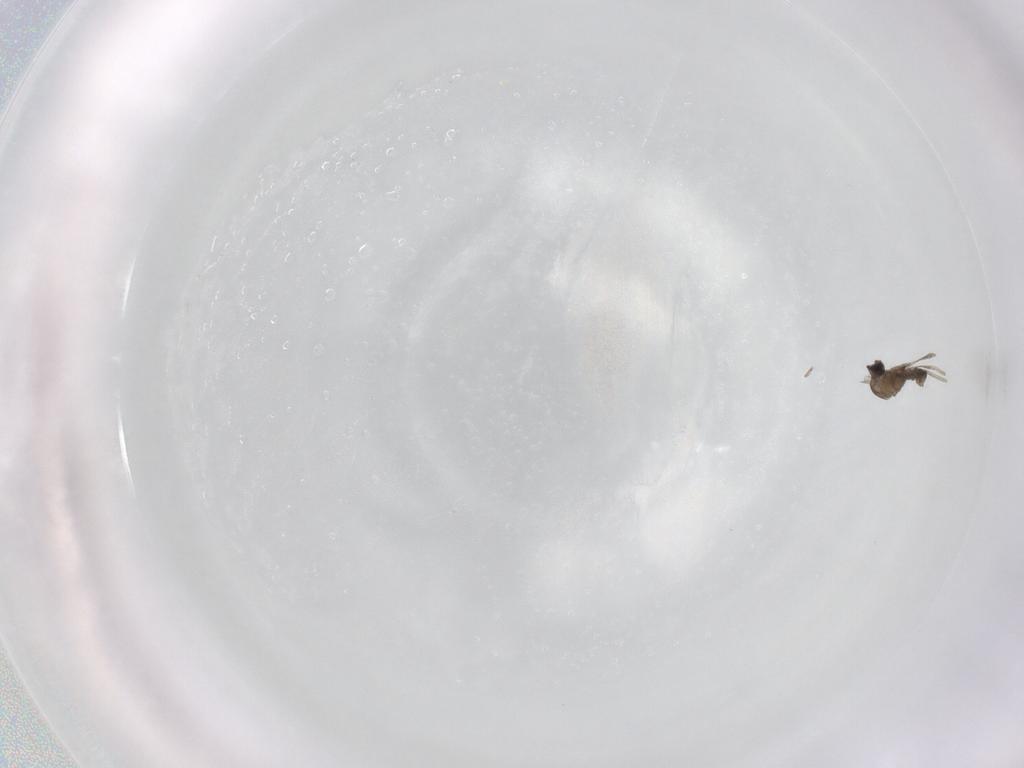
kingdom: Animalia
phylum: Arthropoda
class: Insecta
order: Diptera
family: Cecidomyiidae
